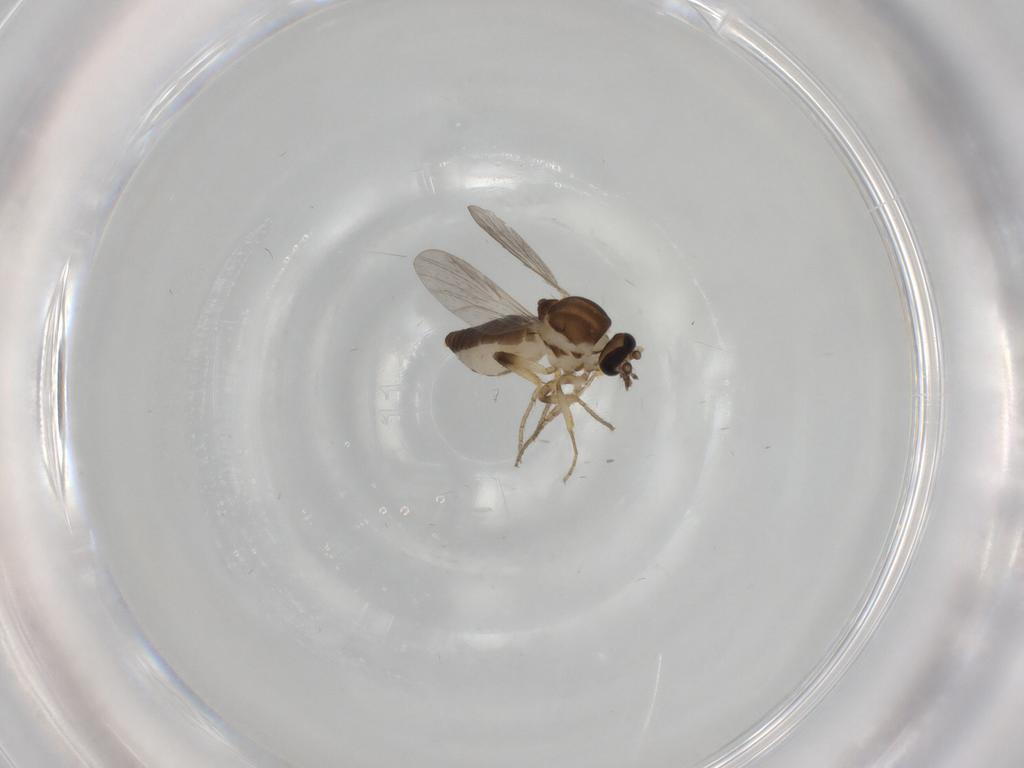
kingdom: Animalia
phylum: Arthropoda
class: Insecta
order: Diptera
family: Ceratopogonidae
